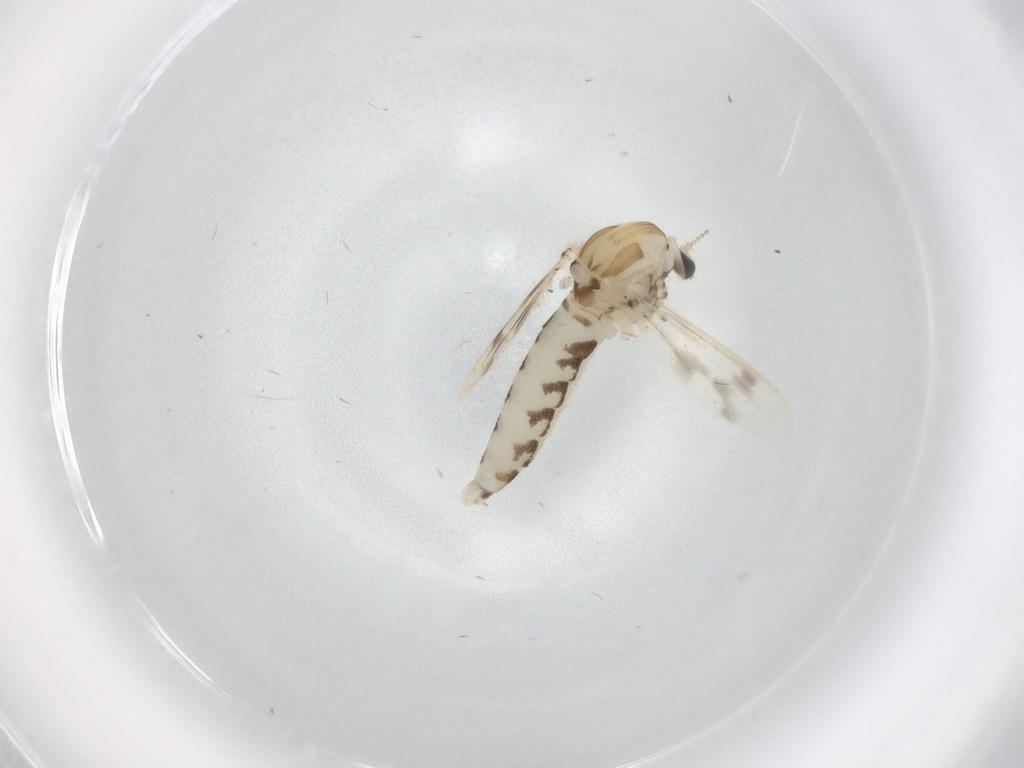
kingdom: Animalia
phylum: Arthropoda
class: Insecta
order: Diptera
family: Corethrellidae
